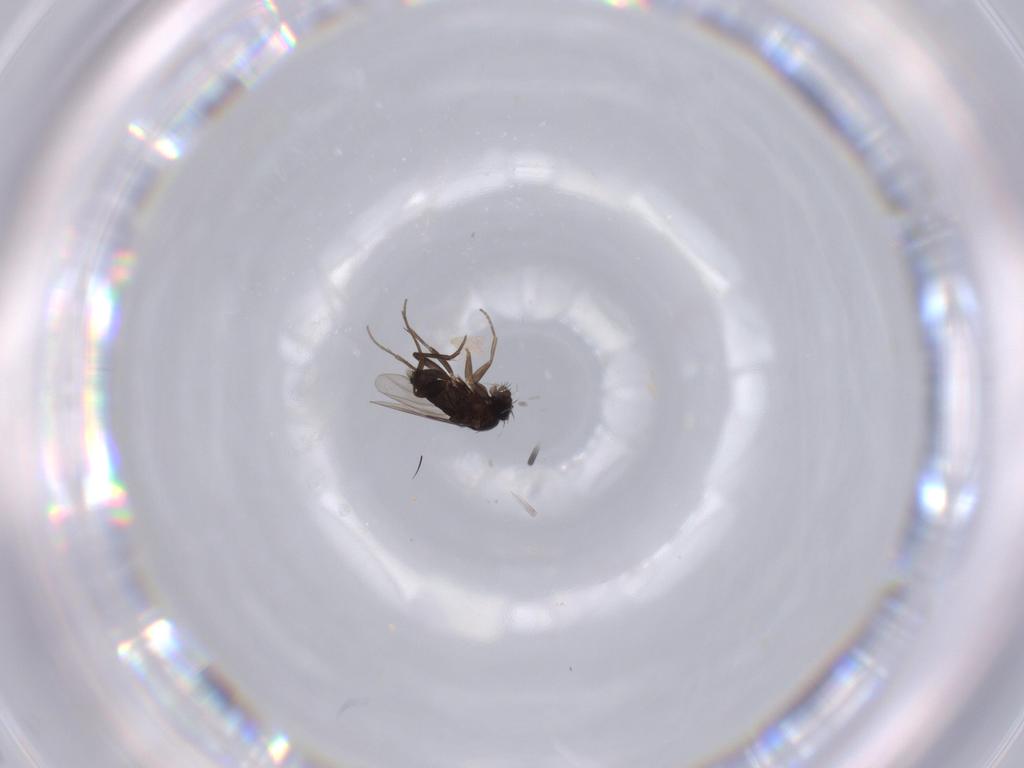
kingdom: Animalia
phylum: Arthropoda
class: Insecta
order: Diptera
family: Phoridae
